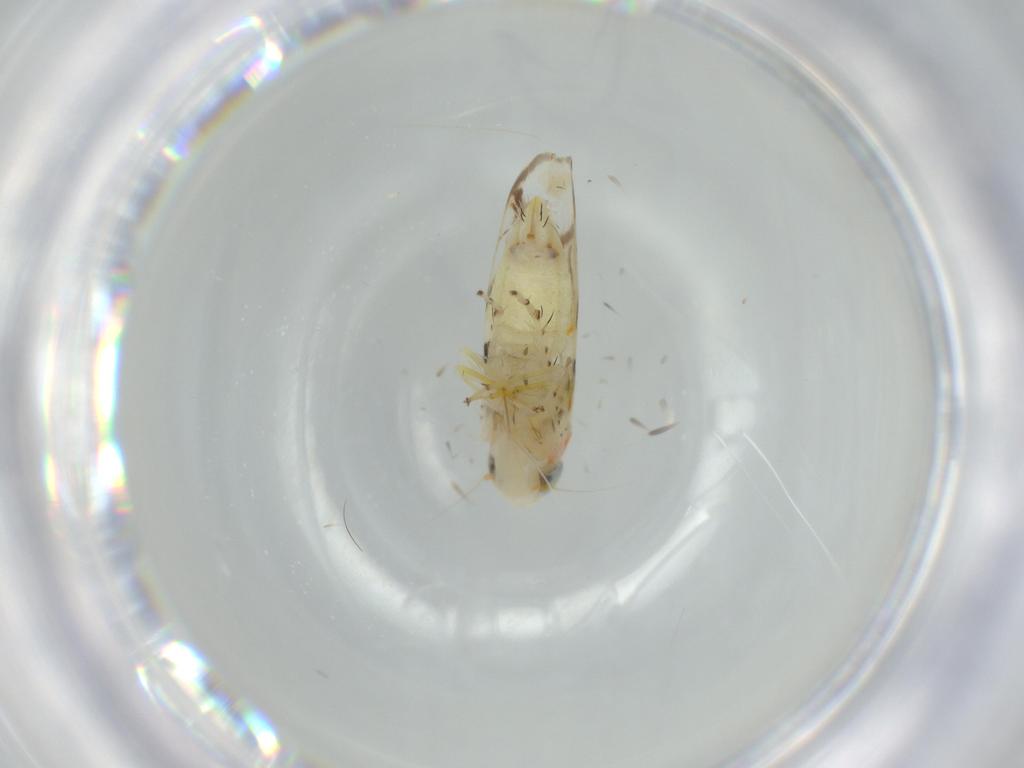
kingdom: Animalia
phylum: Arthropoda
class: Insecta
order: Hemiptera
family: Cicadellidae
